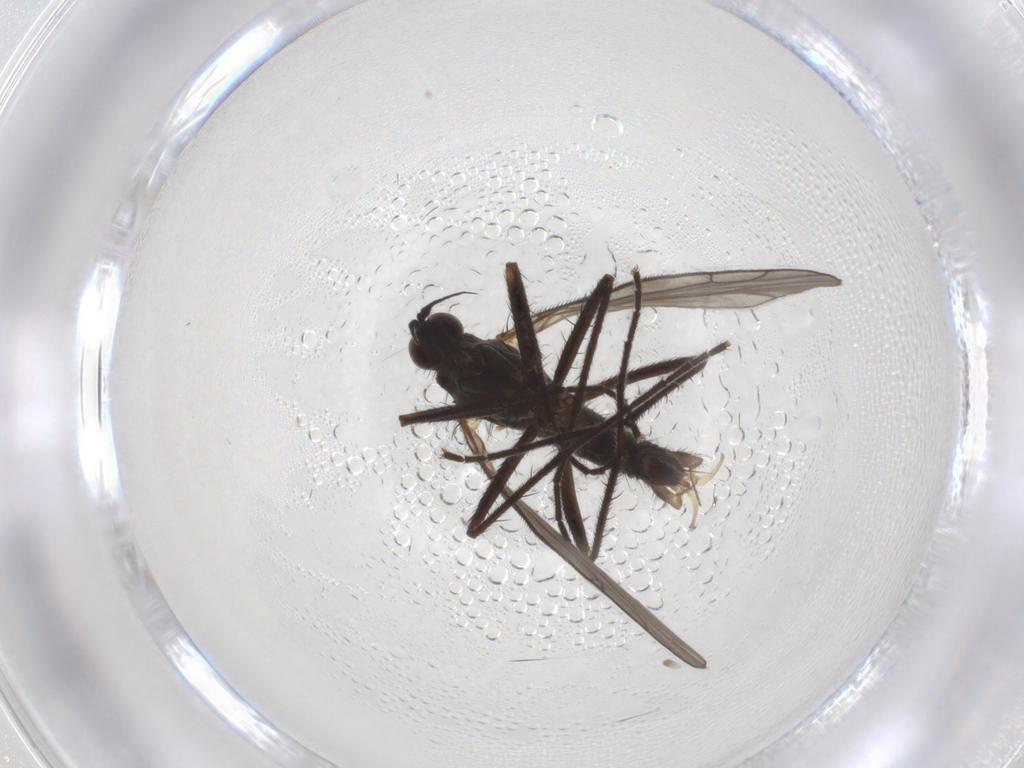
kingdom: Animalia
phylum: Arthropoda
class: Insecta
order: Diptera
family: Empididae
